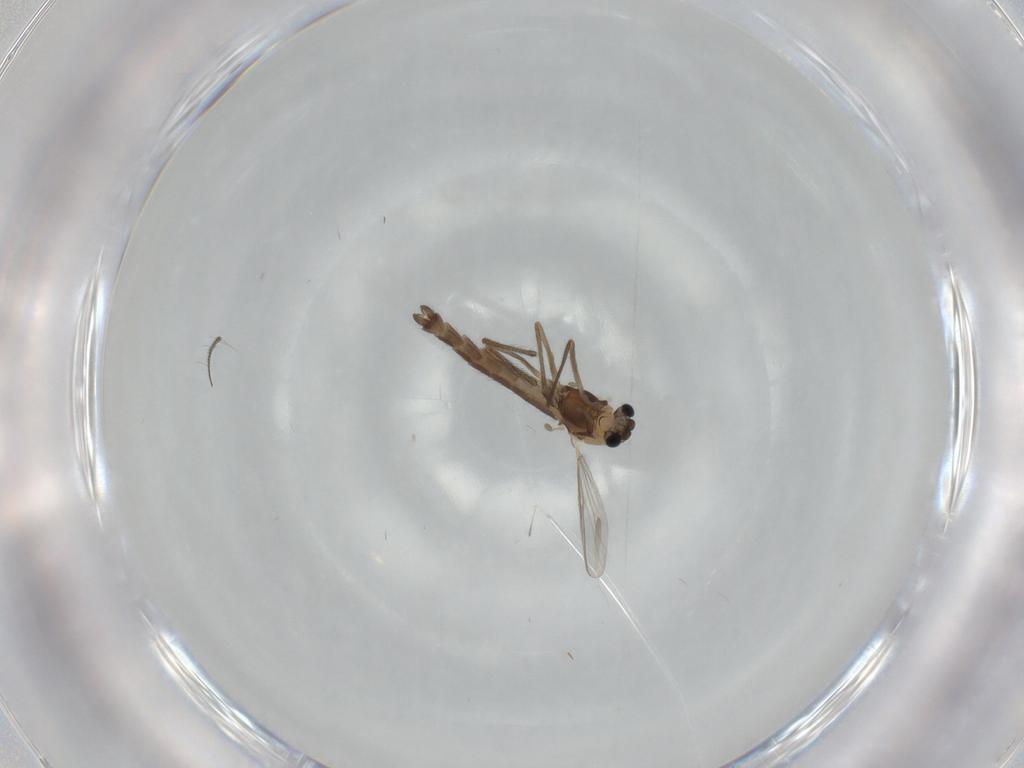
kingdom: Animalia
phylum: Arthropoda
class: Insecta
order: Diptera
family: Chironomidae
